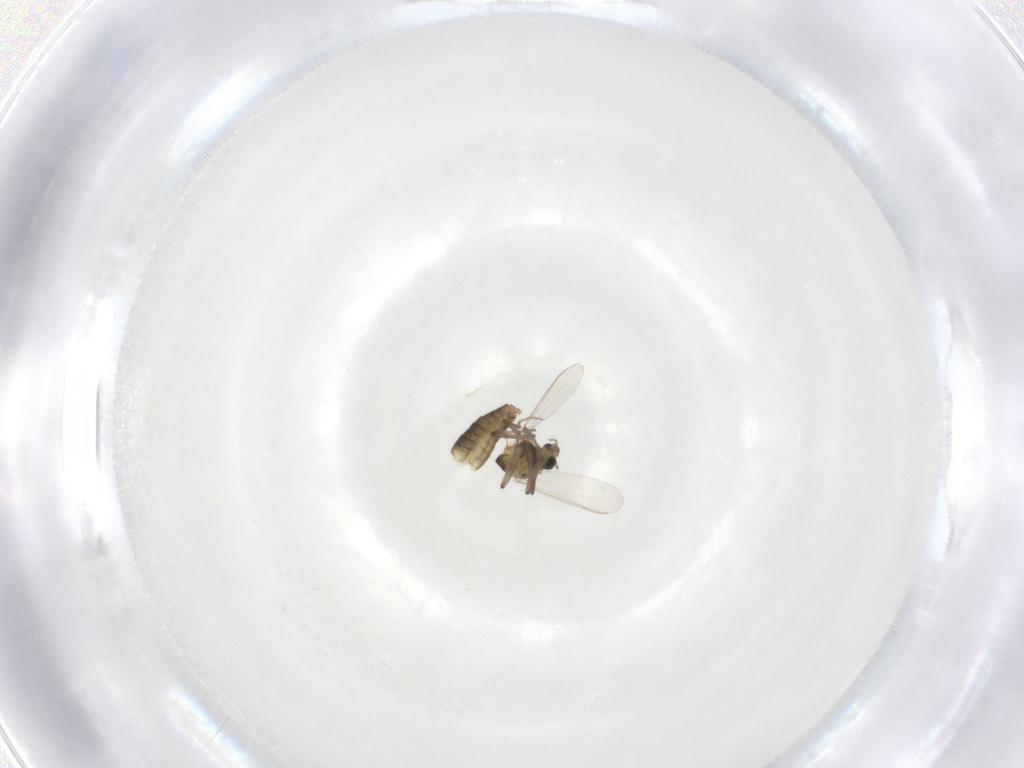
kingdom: Animalia
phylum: Arthropoda
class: Insecta
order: Diptera
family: Chironomidae
